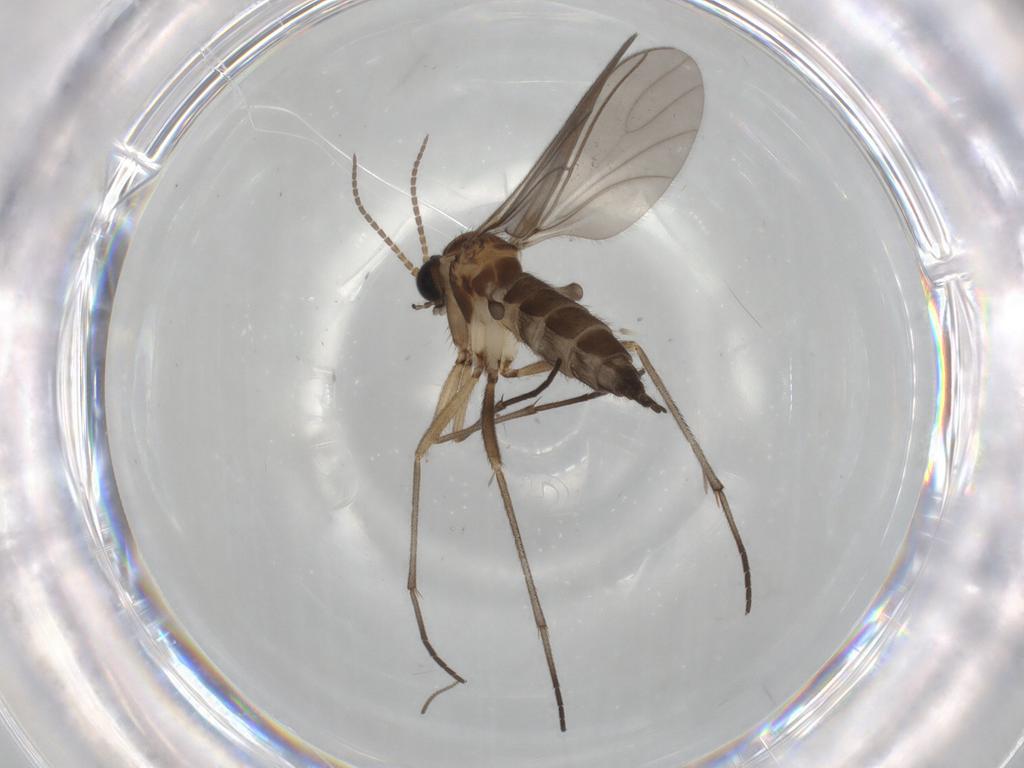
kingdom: Animalia
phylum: Arthropoda
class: Insecta
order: Diptera
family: Sciaridae
